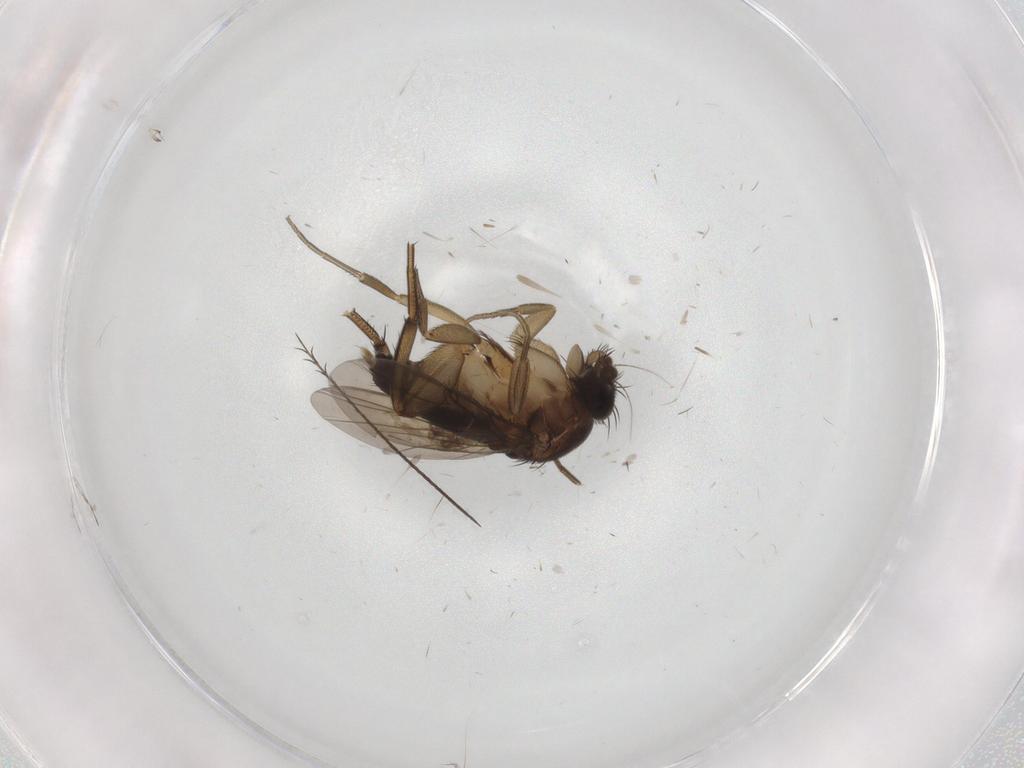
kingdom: Animalia
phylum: Arthropoda
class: Insecta
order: Diptera
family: Phoridae
